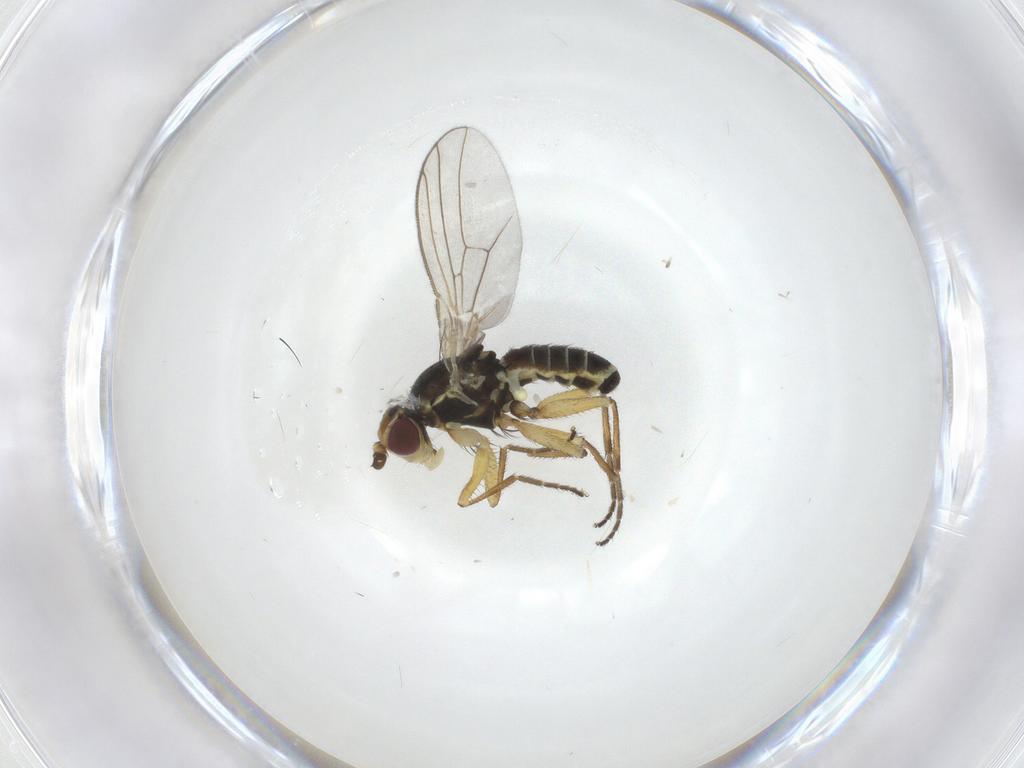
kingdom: Animalia
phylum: Arthropoda
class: Insecta
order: Diptera
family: Agromyzidae
